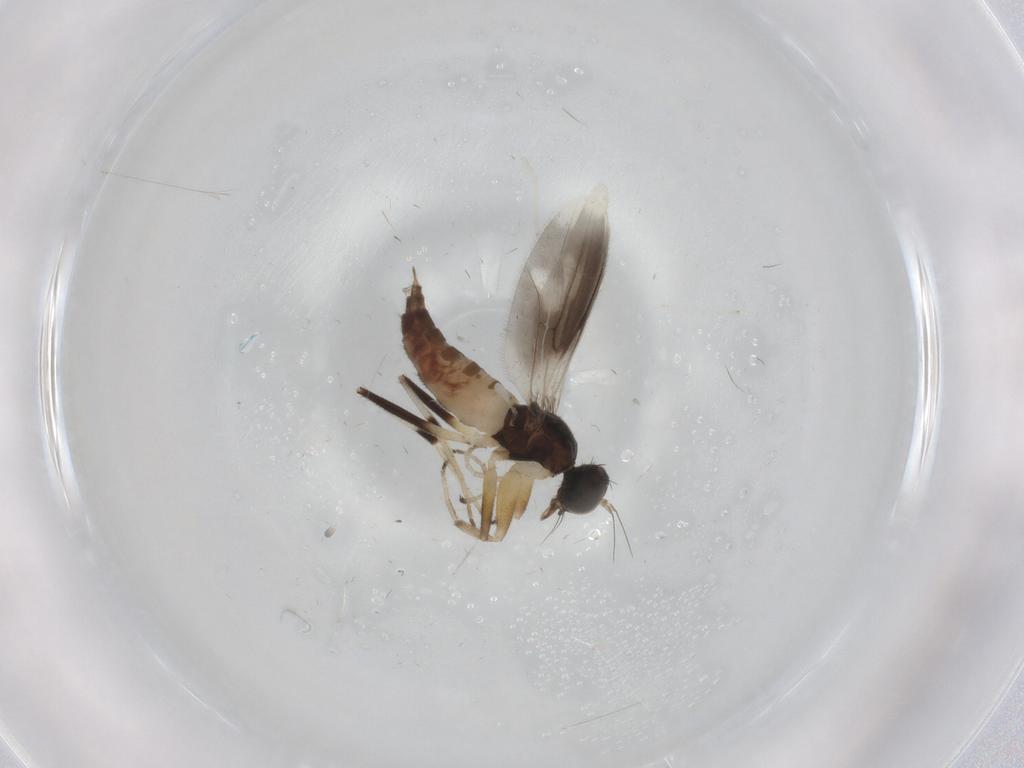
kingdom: Animalia
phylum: Arthropoda
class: Insecta
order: Diptera
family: Hybotidae
